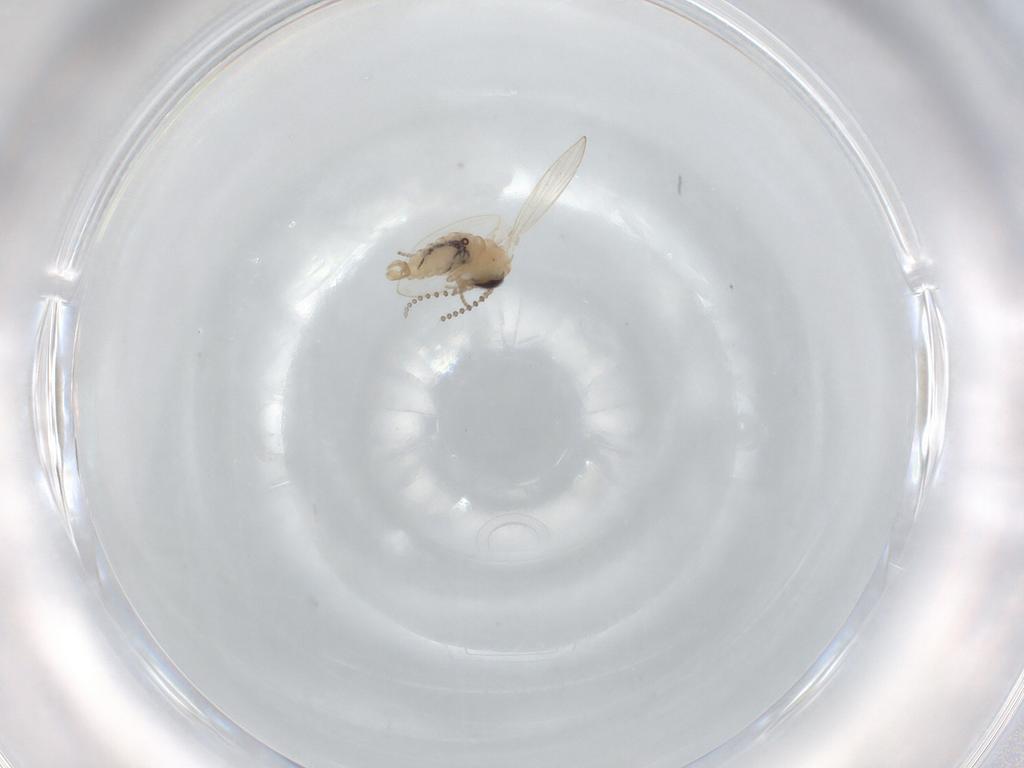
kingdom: Animalia
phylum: Arthropoda
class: Insecta
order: Diptera
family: Psychodidae
